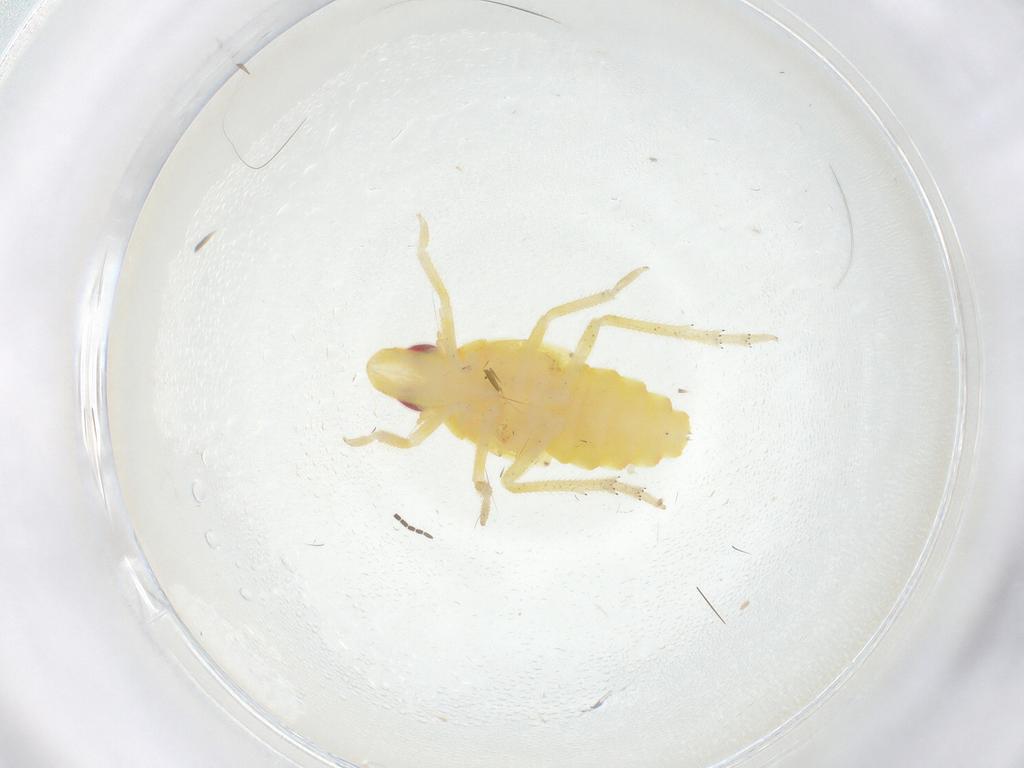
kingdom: Animalia
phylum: Arthropoda
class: Insecta
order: Hemiptera
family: Tropiduchidae
